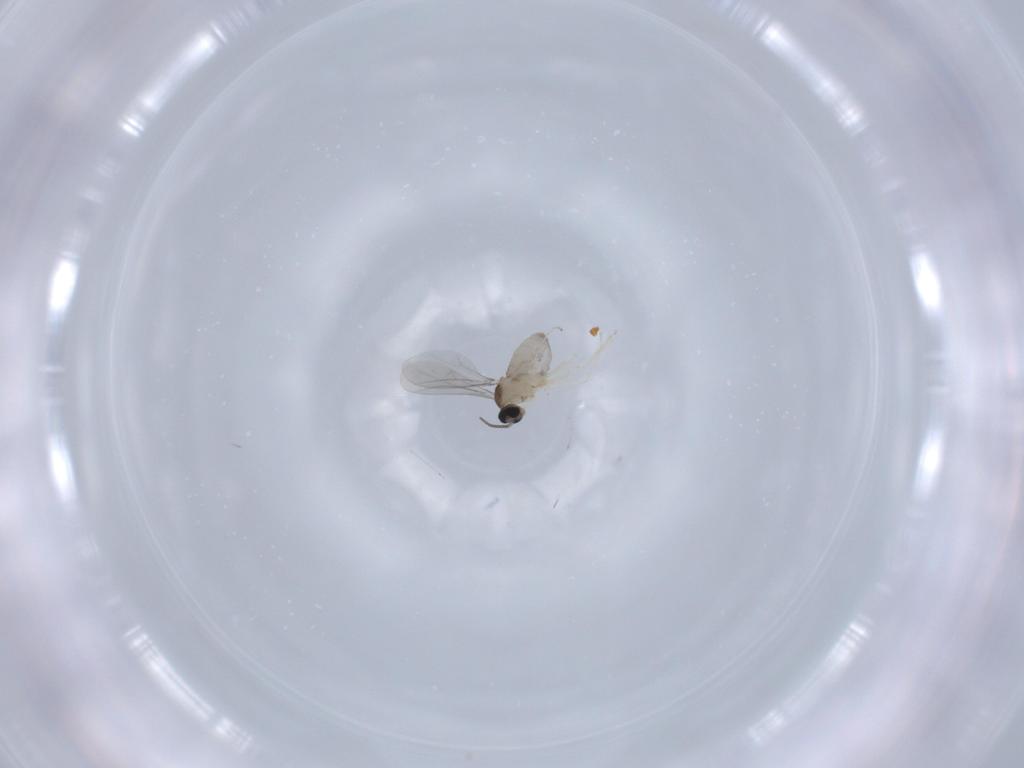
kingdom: Animalia
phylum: Arthropoda
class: Insecta
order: Diptera
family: Cecidomyiidae
